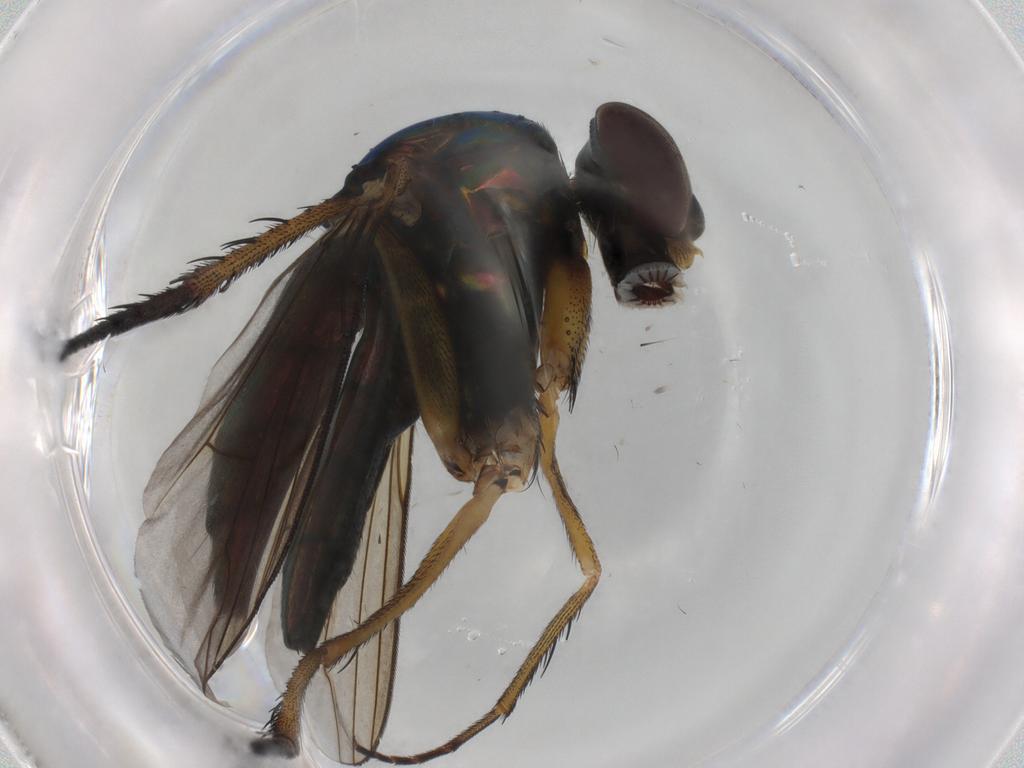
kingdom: Animalia
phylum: Arthropoda
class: Insecta
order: Diptera
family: Dolichopodidae
